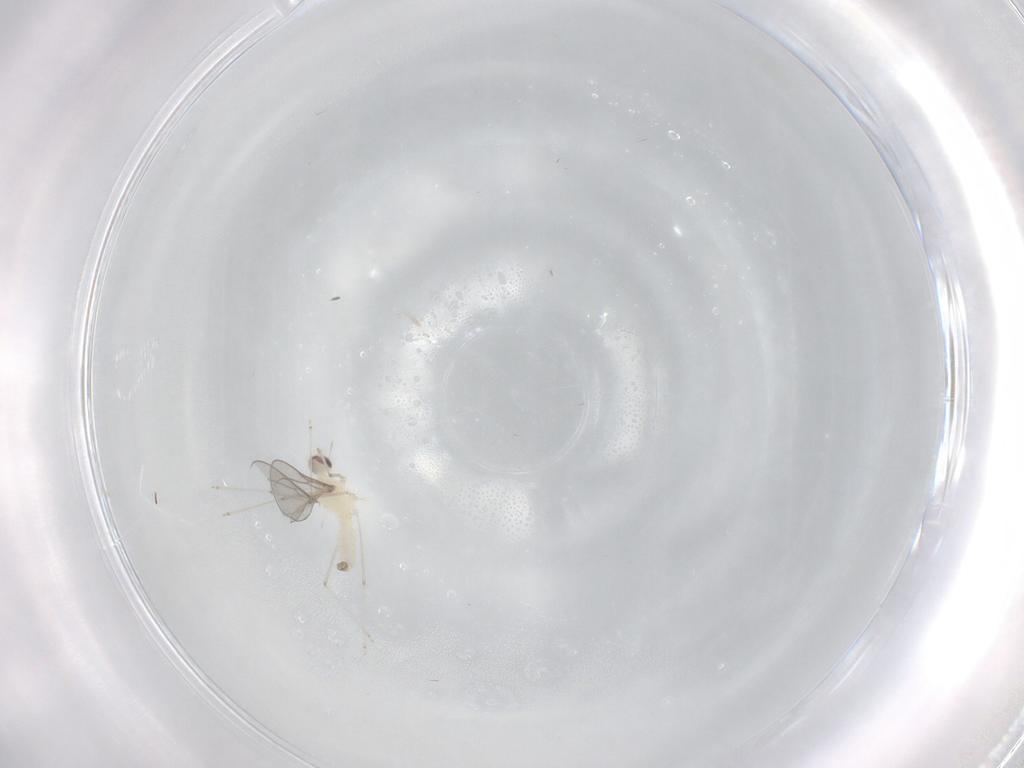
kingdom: Animalia
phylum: Arthropoda
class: Insecta
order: Diptera
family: Cecidomyiidae
